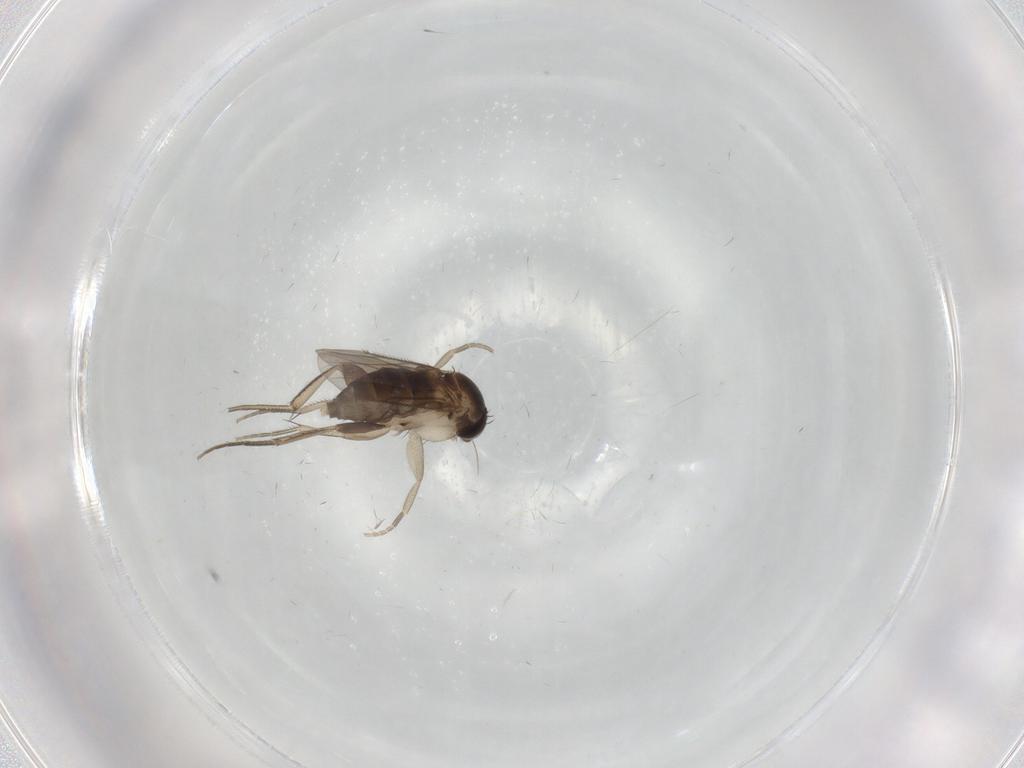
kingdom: Animalia
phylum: Arthropoda
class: Insecta
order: Diptera
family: Phoridae
